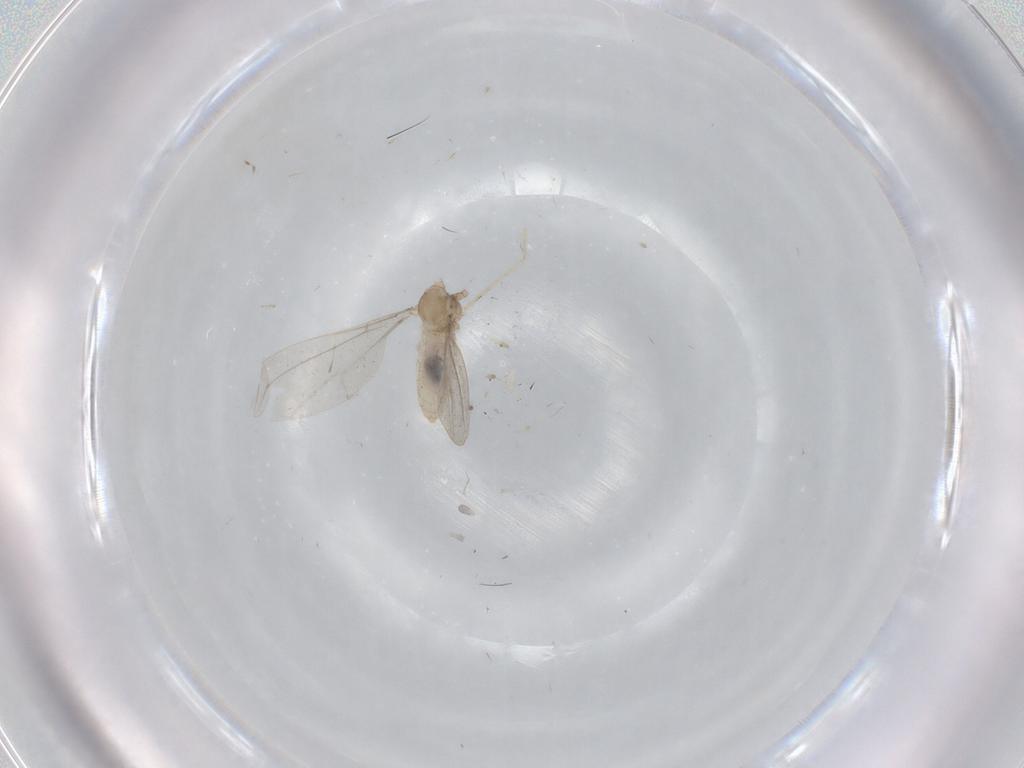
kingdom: Animalia
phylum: Arthropoda
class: Insecta
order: Diptera
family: Cecidomyiidae
